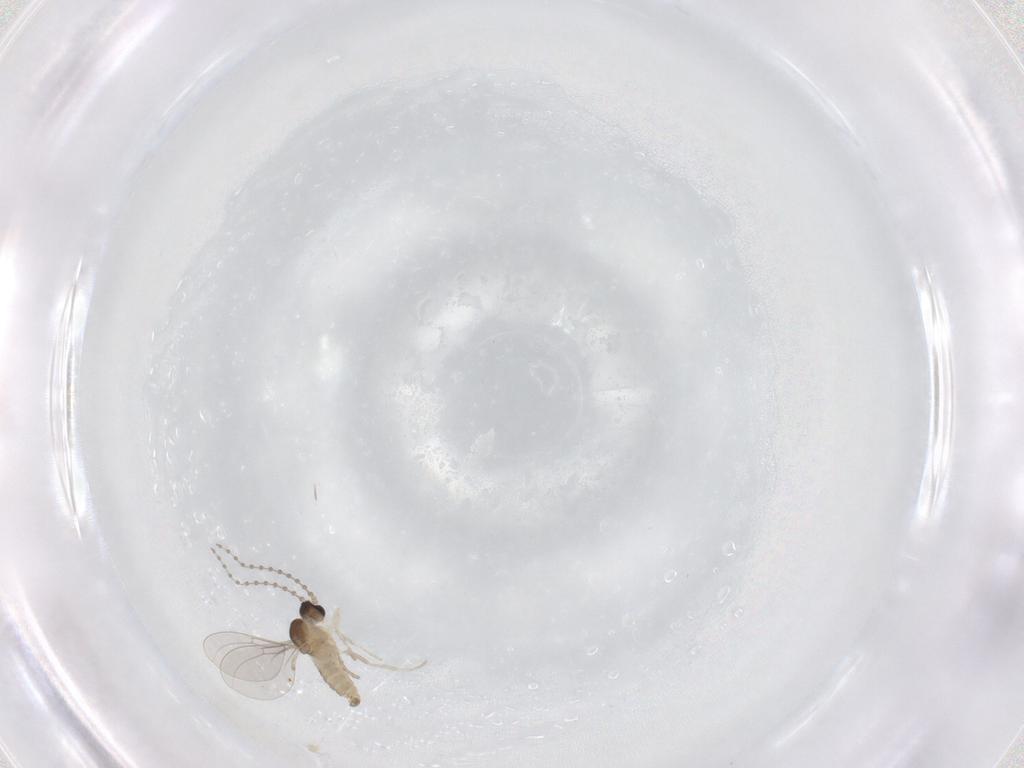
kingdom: Animalia
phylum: Arthropoda
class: Insecta
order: Diptera
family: Cecidomyiidae
